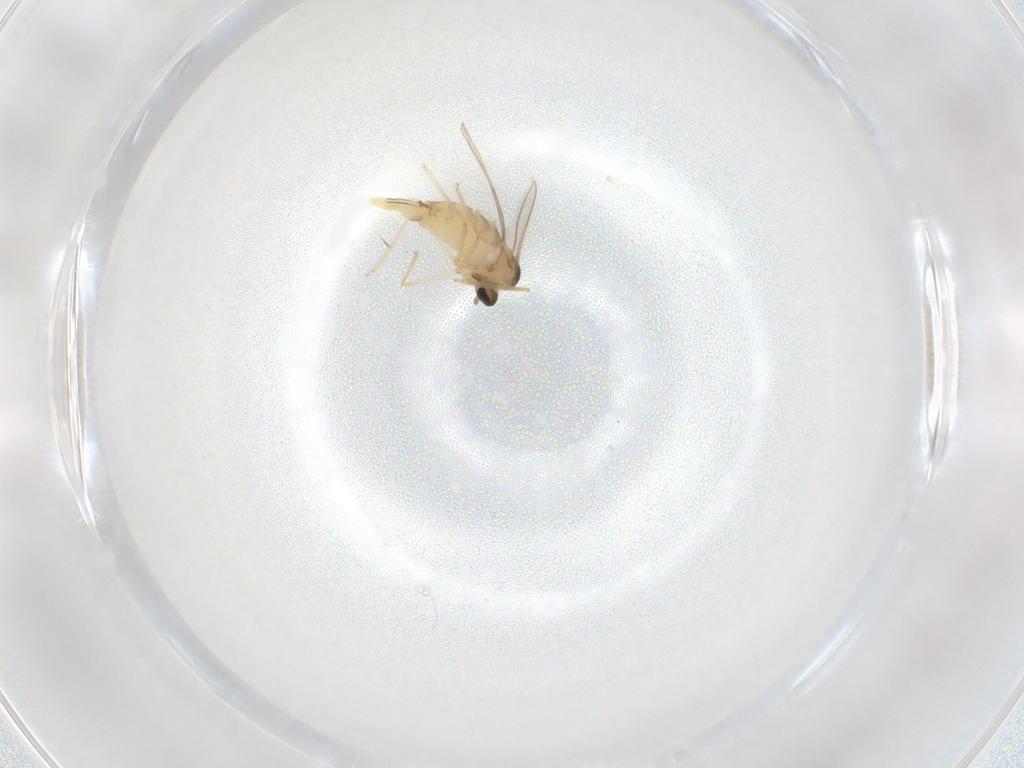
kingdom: Animalia
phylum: Arthropoda
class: Insecta
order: Diptera
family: Cecidomyiidae
